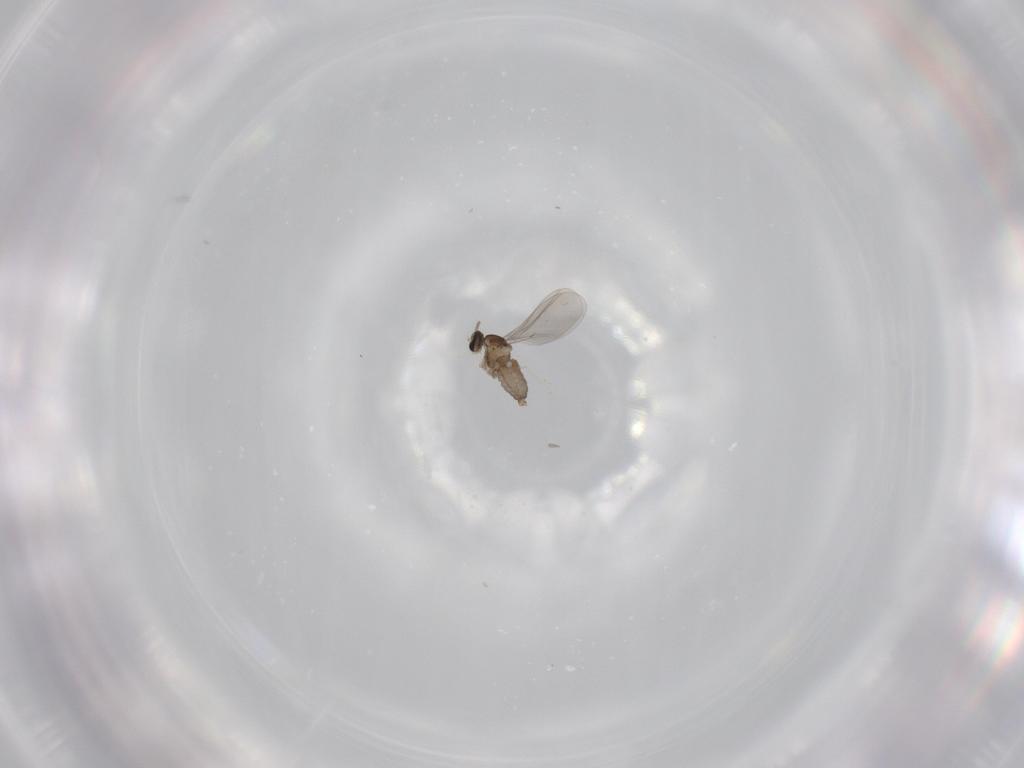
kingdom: Animalia
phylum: Arthropoda
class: Insecta
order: Diptera
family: Cecidomyiidae
